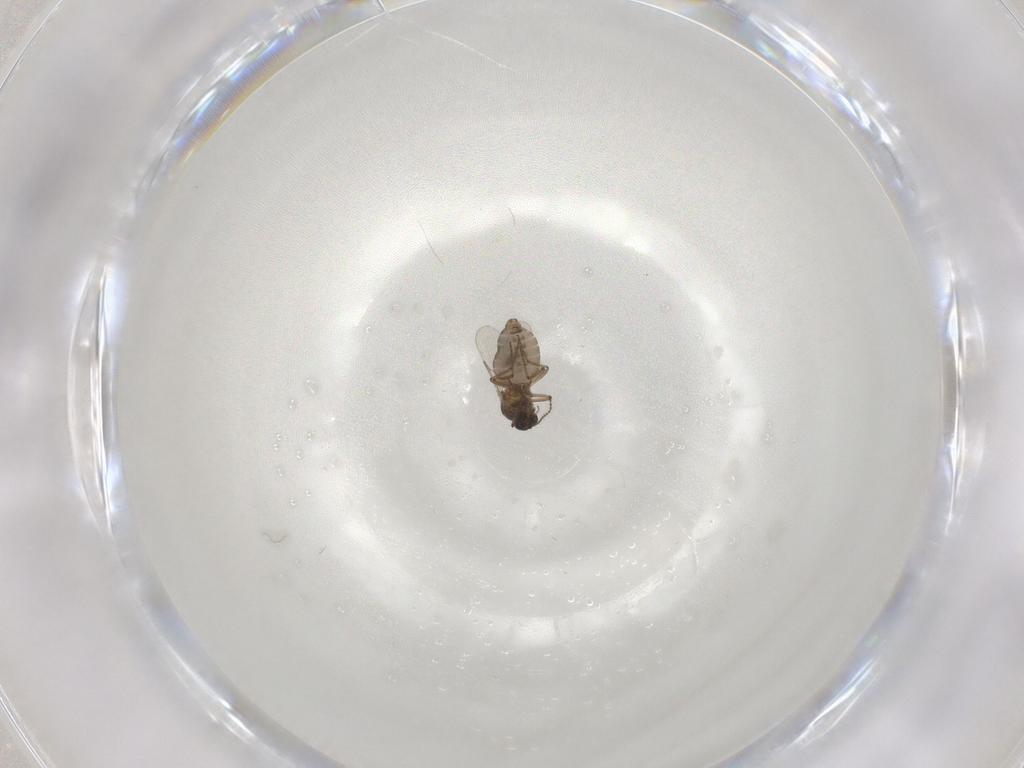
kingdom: Animalia
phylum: Arthropoda
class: Insecta
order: Diptera
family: Ceratopogonidae
